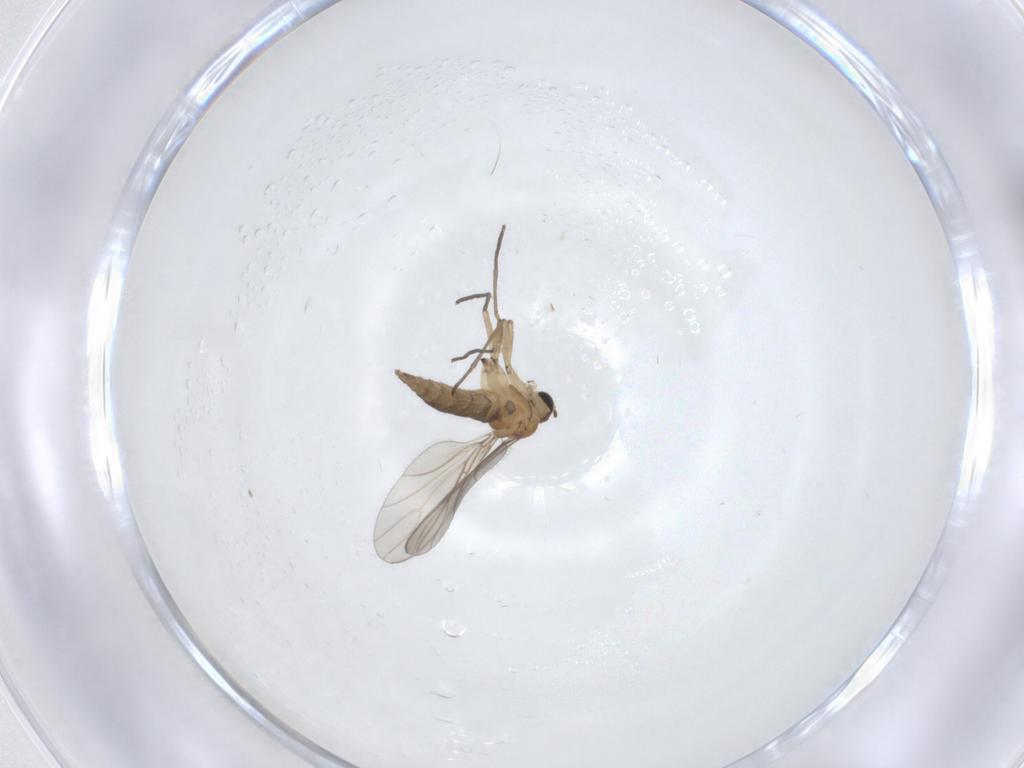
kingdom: Animalia
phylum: Arthropoda
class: Insecta
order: Diptera
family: Sciaridae
